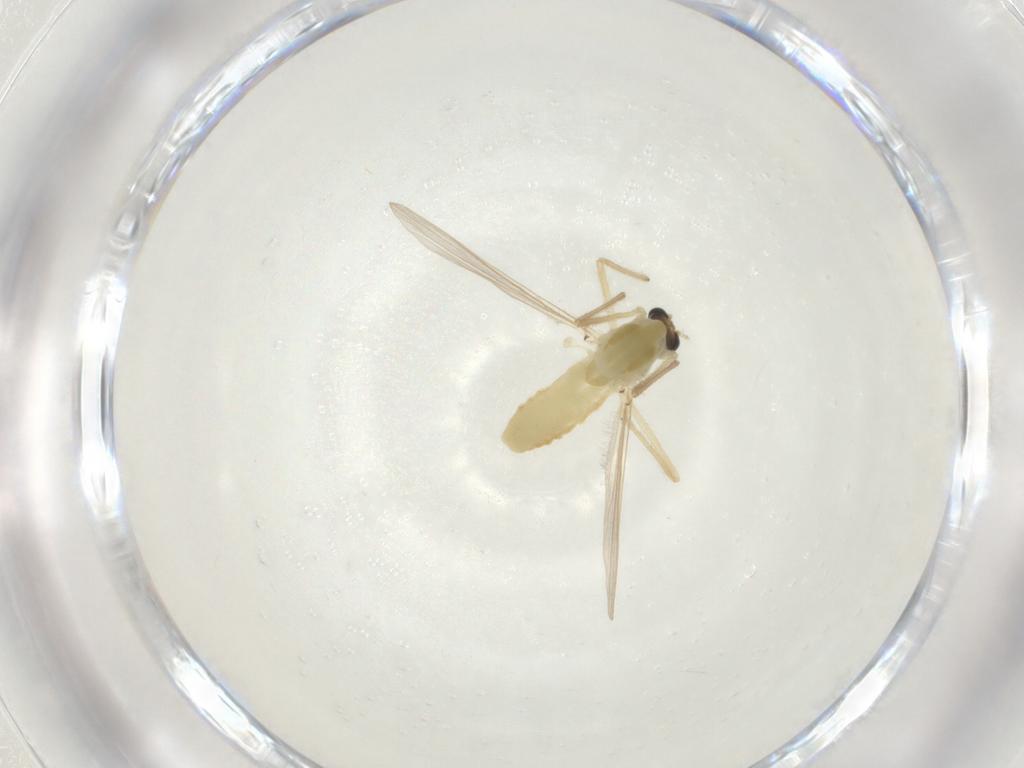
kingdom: Animalia
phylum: Arthropoda
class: Insecta
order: Diptera
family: Chironomidae
